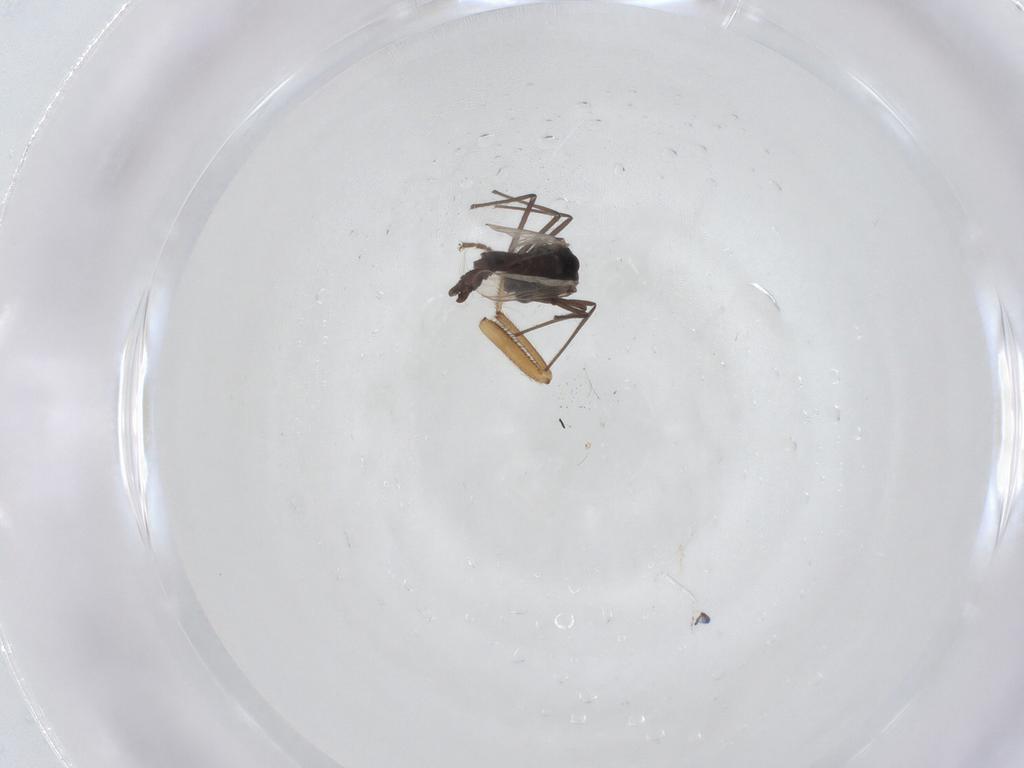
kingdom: Animalia
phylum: Arthropoda
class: Insecta
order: Diptera
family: Chironomidae
